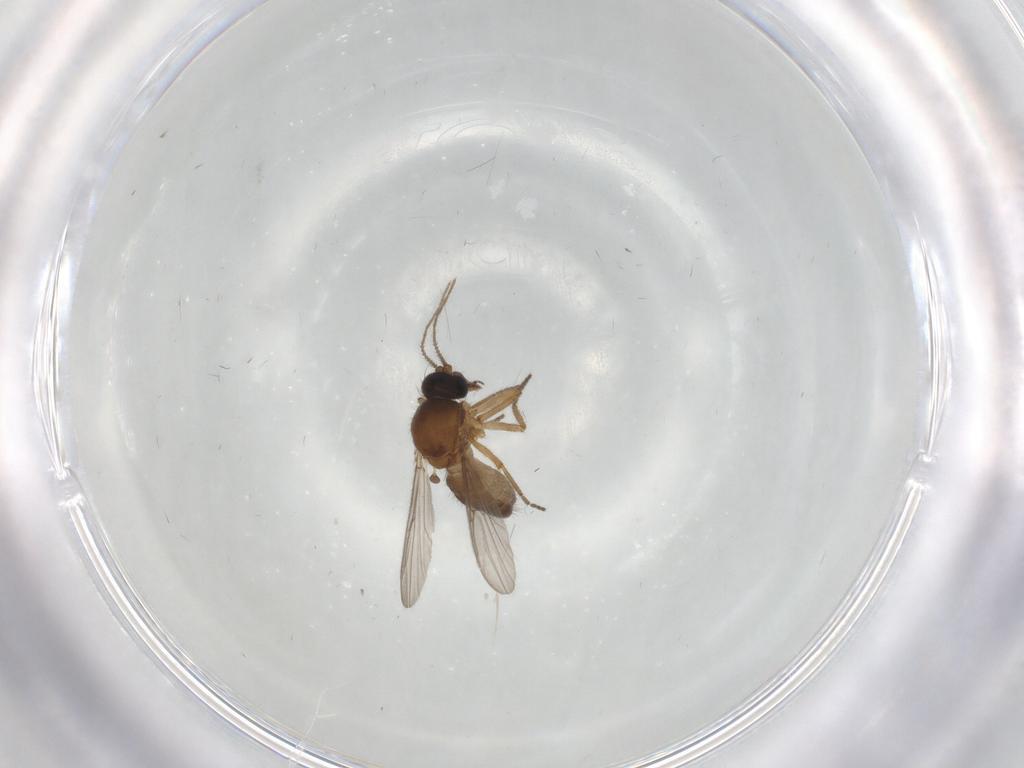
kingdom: Animalia
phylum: Arthropoda
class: Insecta
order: Diptera
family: Ceratopogonidae
